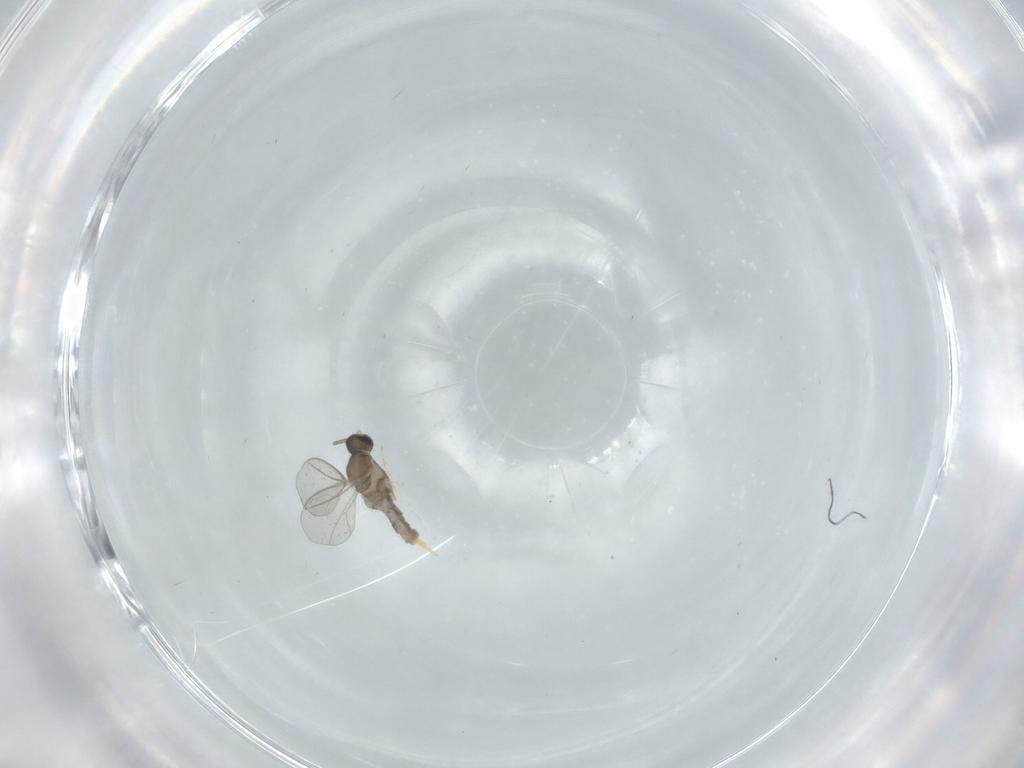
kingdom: Animalia
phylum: Arthropoda
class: Insecta
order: Diptera
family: Cecidomyiidae
